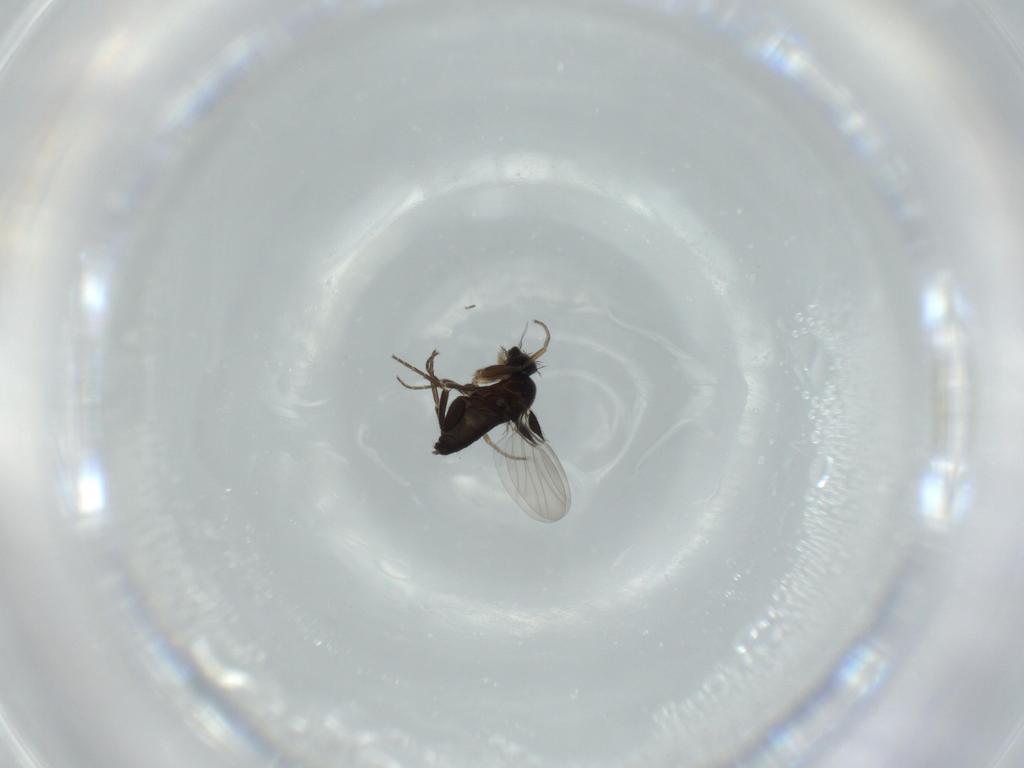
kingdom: Animalia
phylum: Arthropoda
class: Insecta
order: Diptera
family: Phoridae
